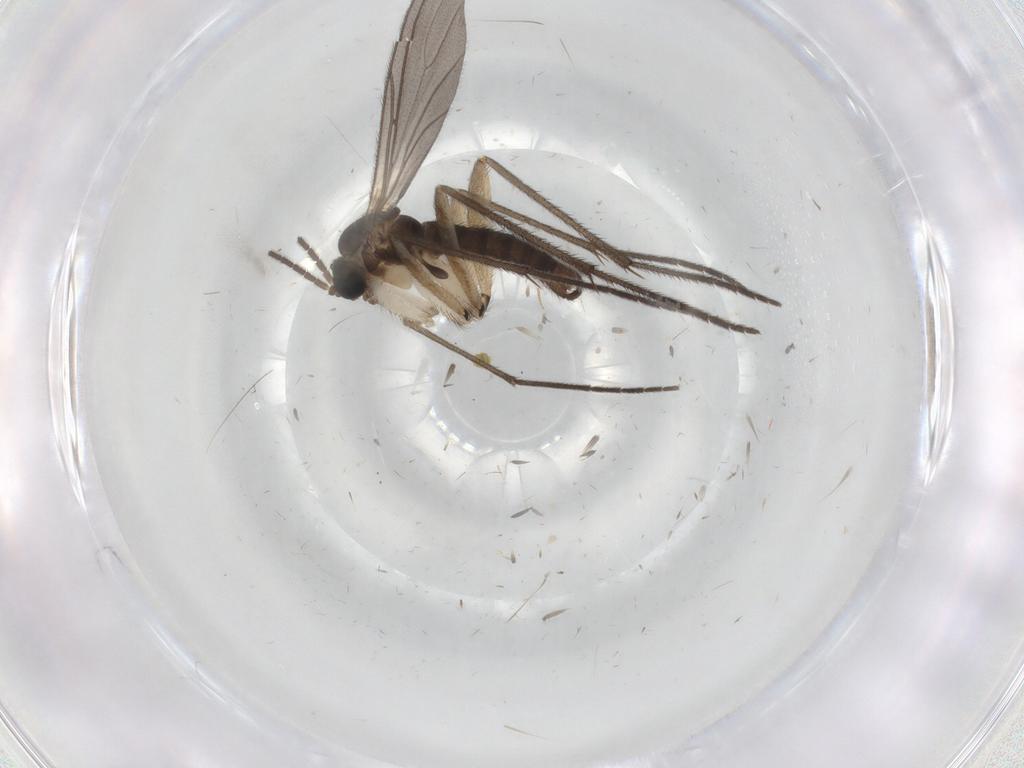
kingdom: Animalia
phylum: Arthropoda
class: Insecta
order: Diptera
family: Sciaridae
